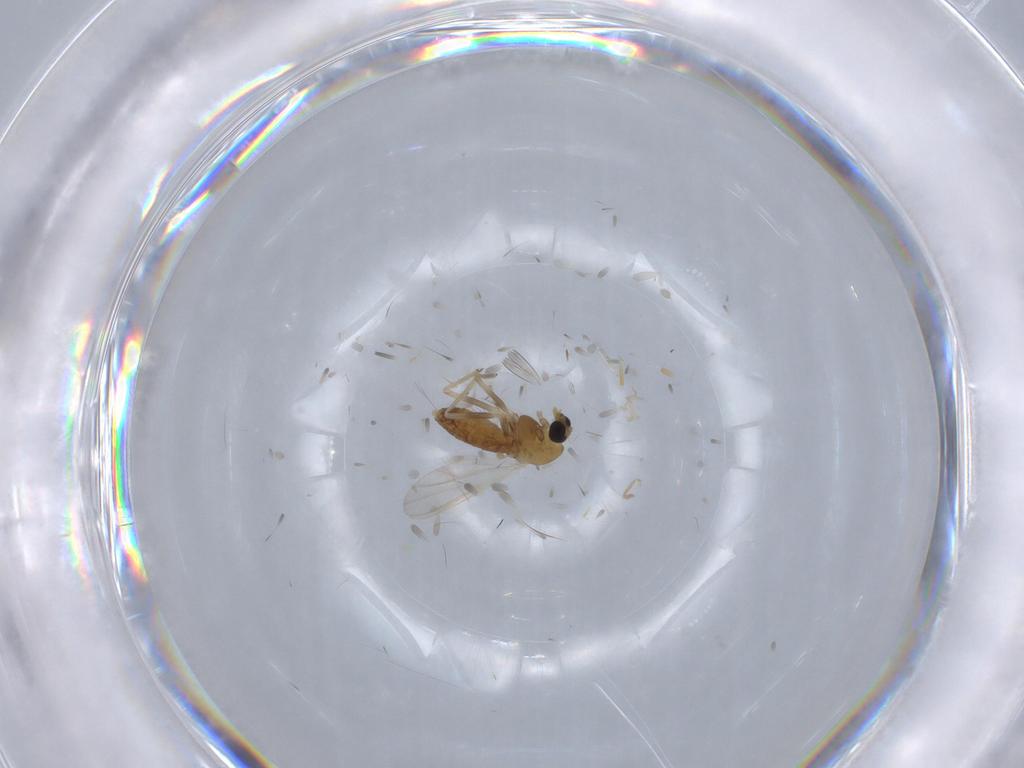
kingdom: Animalia
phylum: Arthropoda
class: Insecta
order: Diptera
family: Chironomidae
